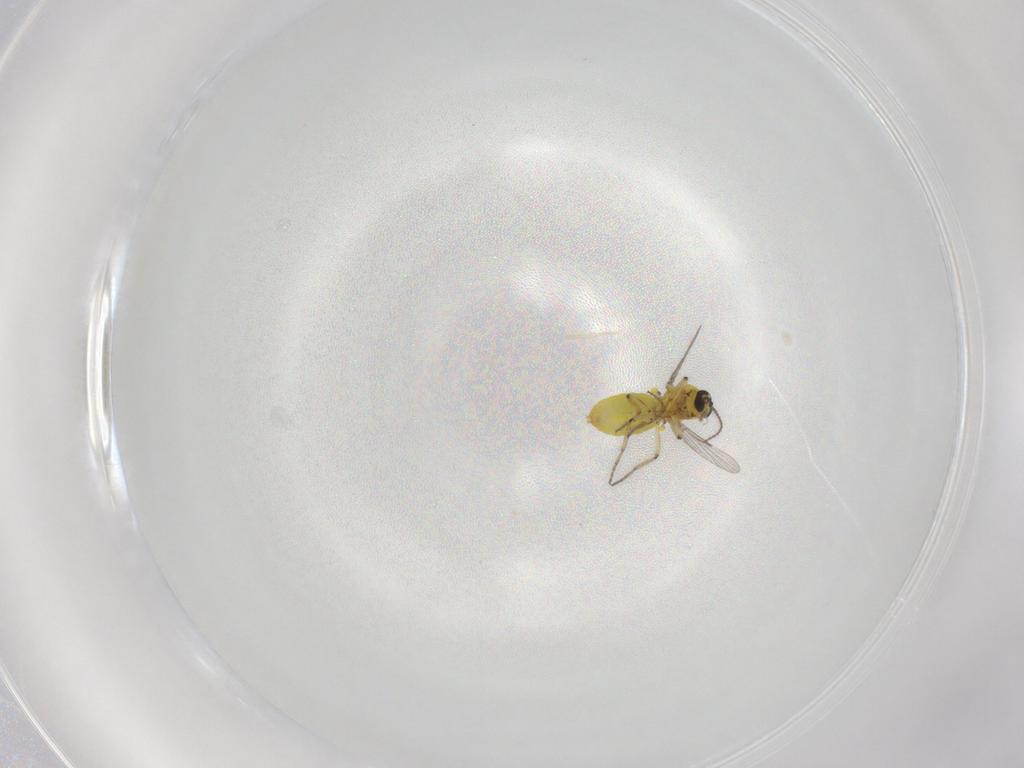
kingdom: Animalia
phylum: Arthropoda
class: Insecta
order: Diptera
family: Ceratopogonidae
